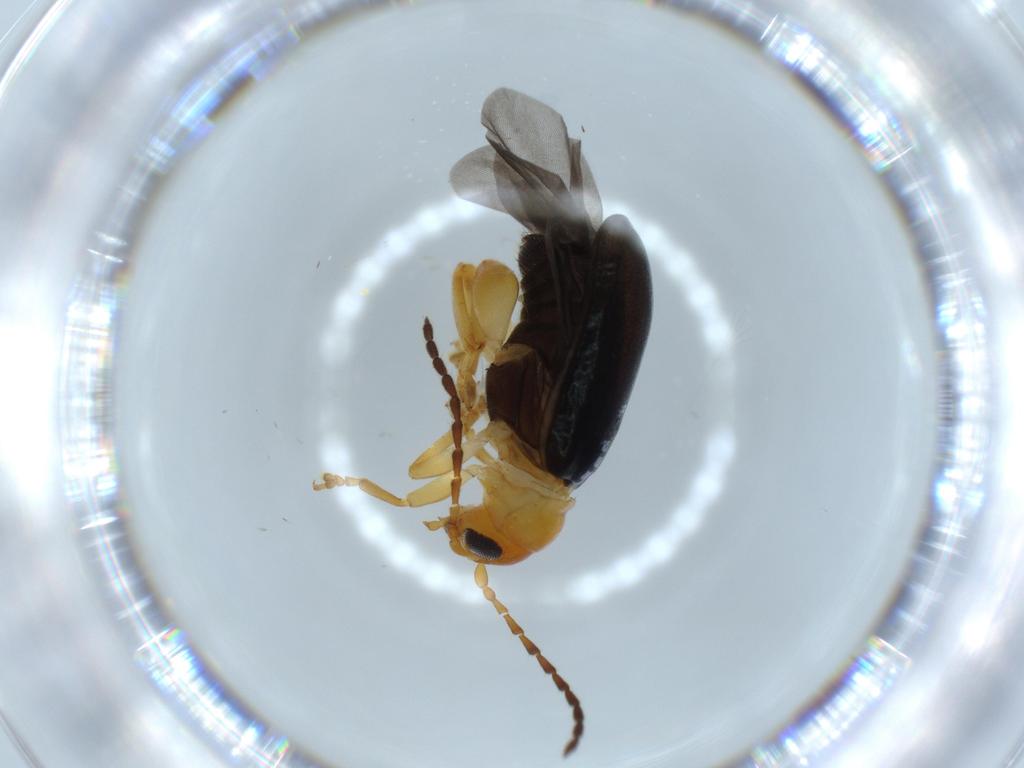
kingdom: Animalia
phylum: Arthropoda
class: Insecta
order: Coleoptera
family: Chrysomelidae
